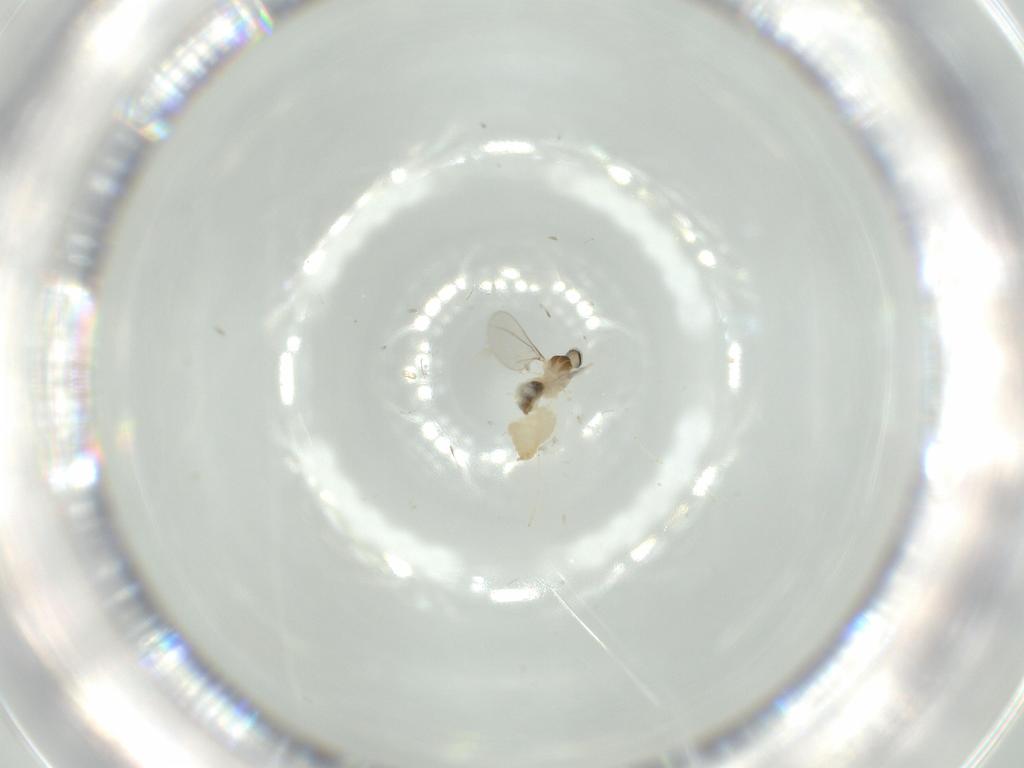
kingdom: Animalia
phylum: Arthropoda
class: Insecta
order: Diptera
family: Cecidomyiidae
